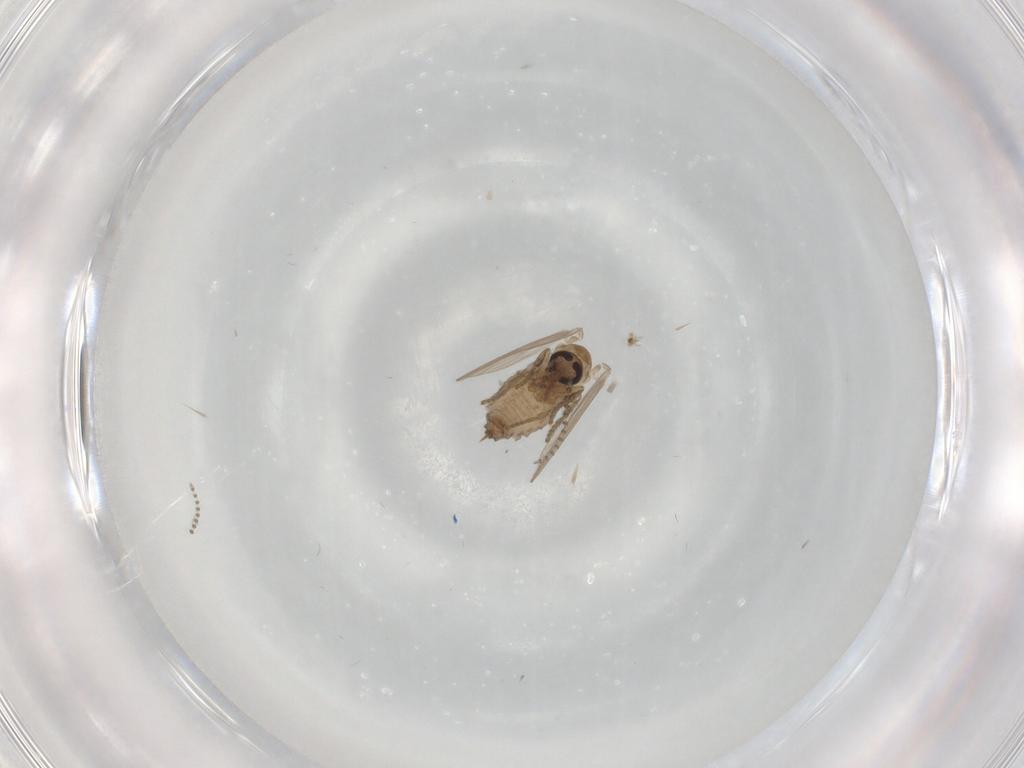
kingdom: Animalia
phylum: Arthropoda
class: Insecta
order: Diptera
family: Psychodidae
